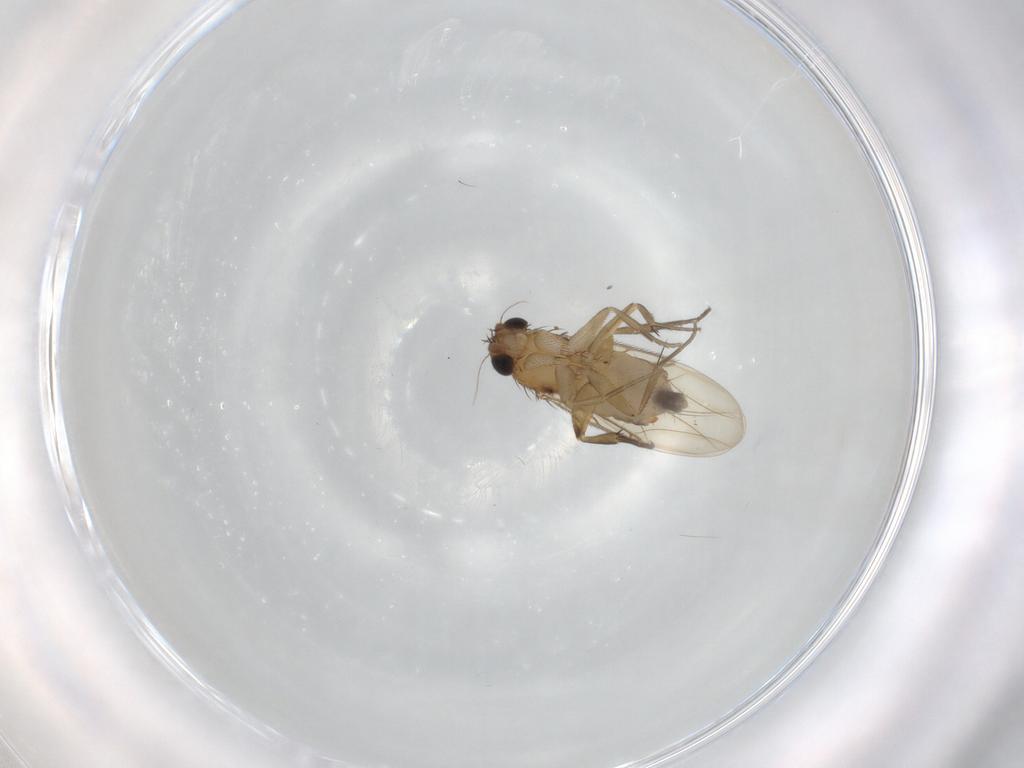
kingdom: Animalia
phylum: Arthropoda
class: Insecta
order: Diptera
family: Phoridae
